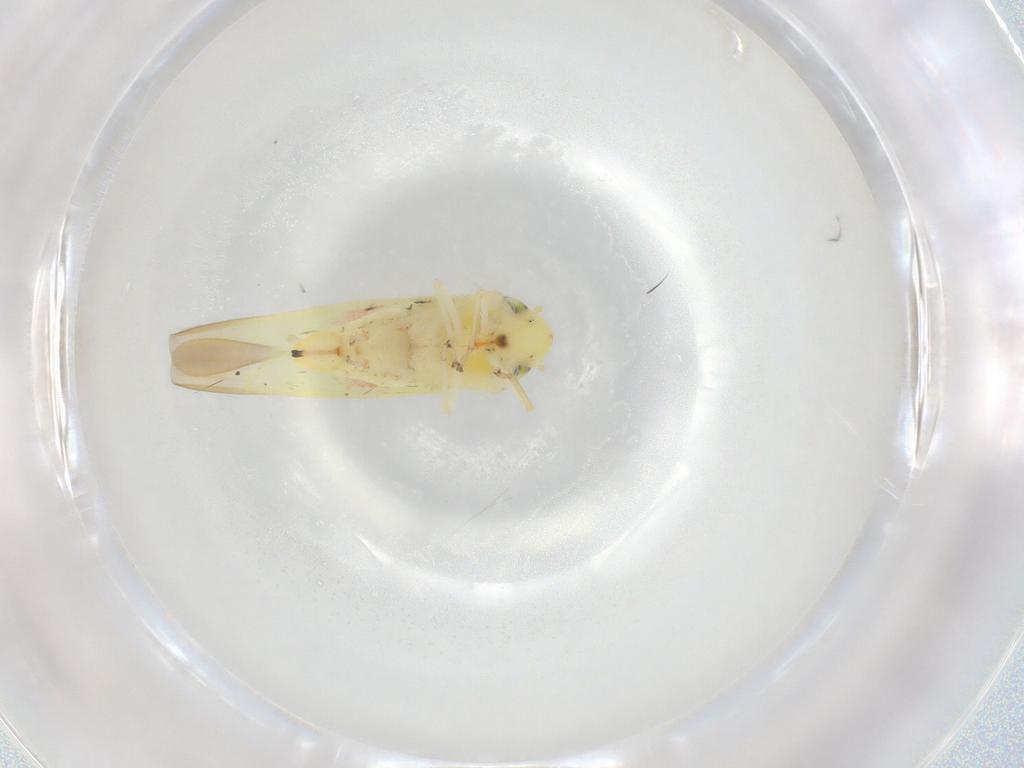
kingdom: Animalia
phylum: Arthropoda
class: Insecta
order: Hemiptera
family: Cicadellidae
